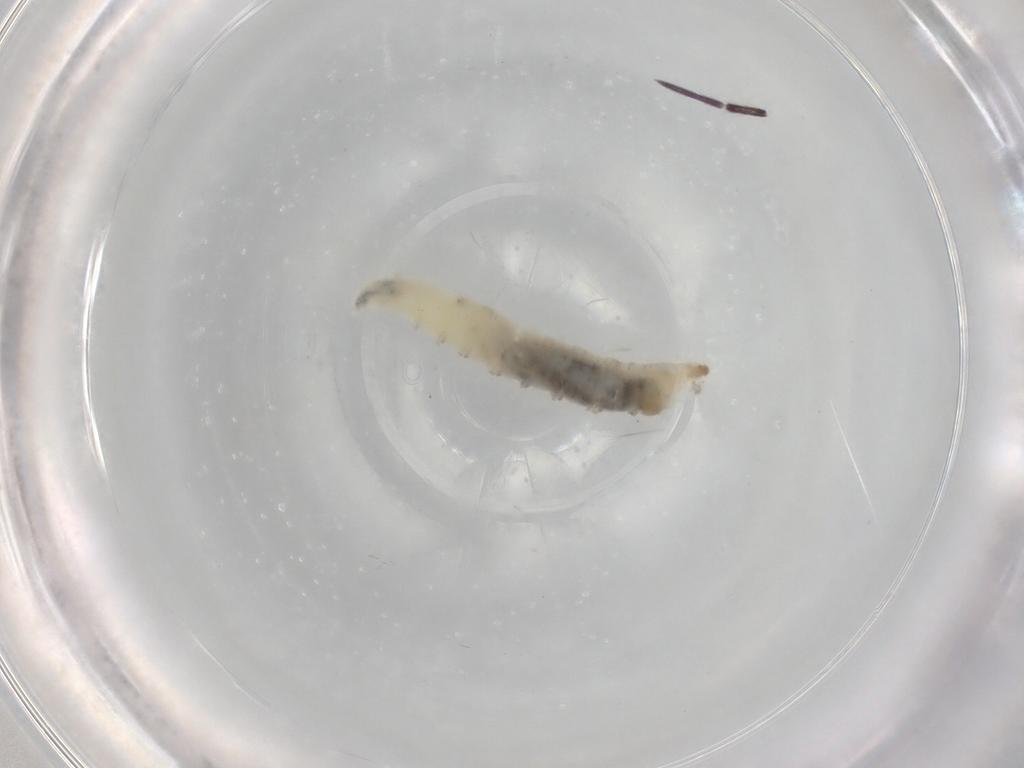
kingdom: Animalia
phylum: Arthropoda
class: Insecta
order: Diptera
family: Drosophilidae
